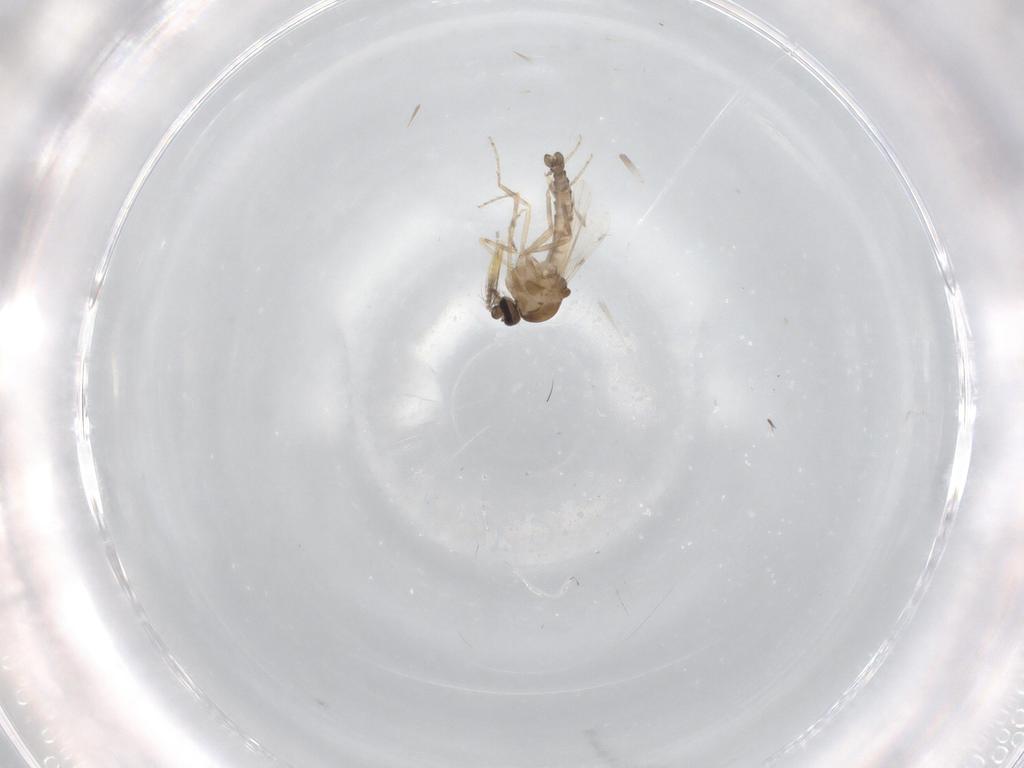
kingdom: Animalia
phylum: Arthropoda
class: Insecta
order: Diptera
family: Ceratopogonidae
